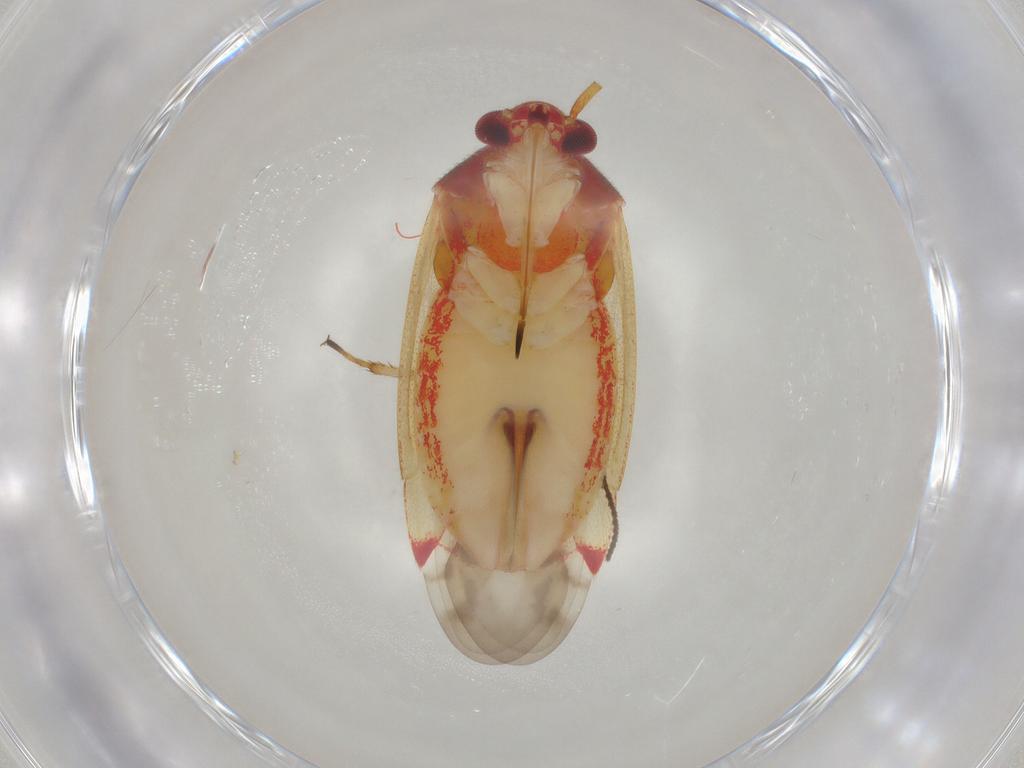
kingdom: Animalia
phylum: Arthropoda
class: Insecta
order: Hemiptera
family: Miridae
